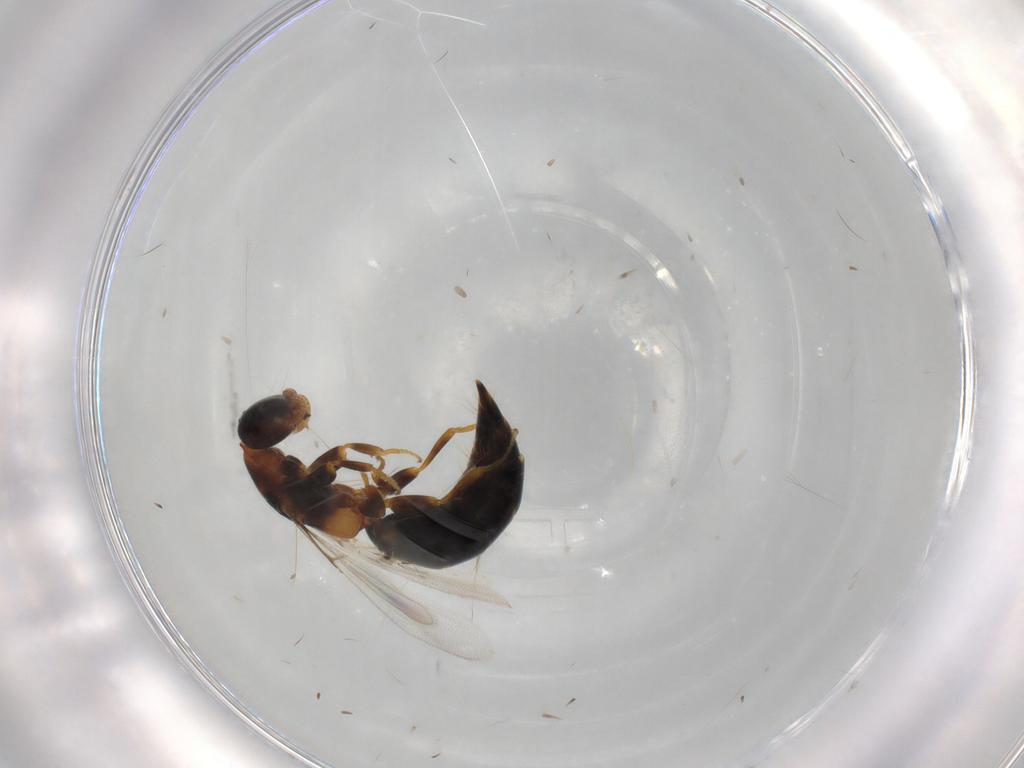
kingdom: Animalia
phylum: Arthropoda
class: Insecta
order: Hymenoptera
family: Bethylidae
